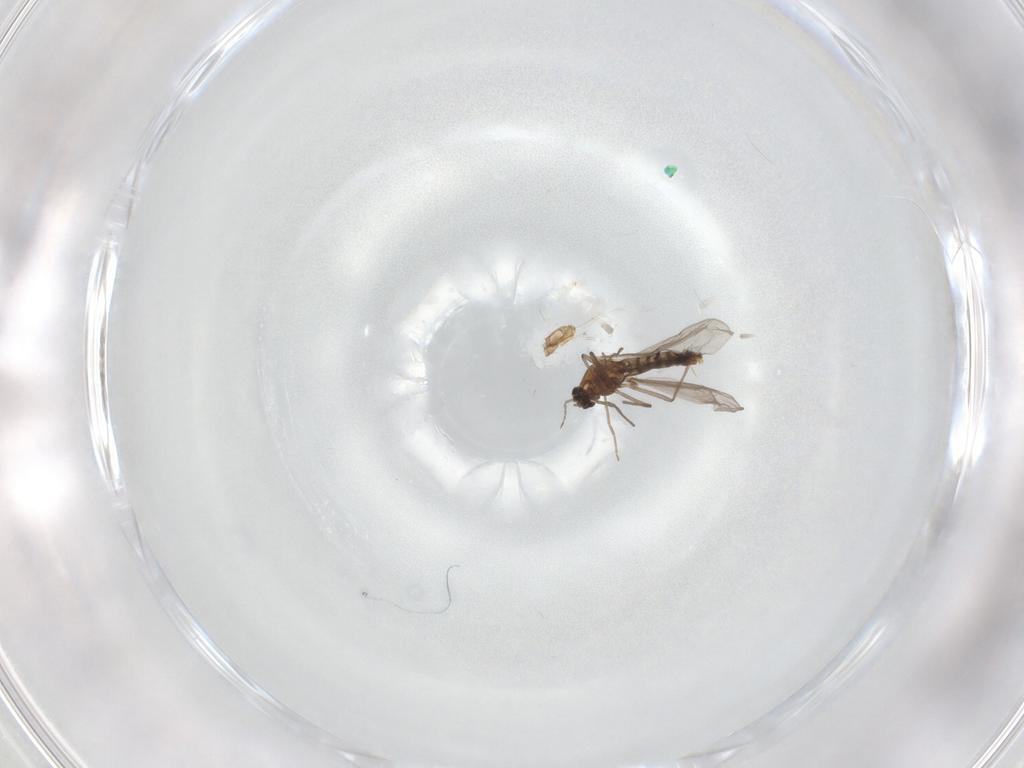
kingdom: Animalia
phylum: Arthropoda
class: Insecta
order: Diptera
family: Chironomidae
